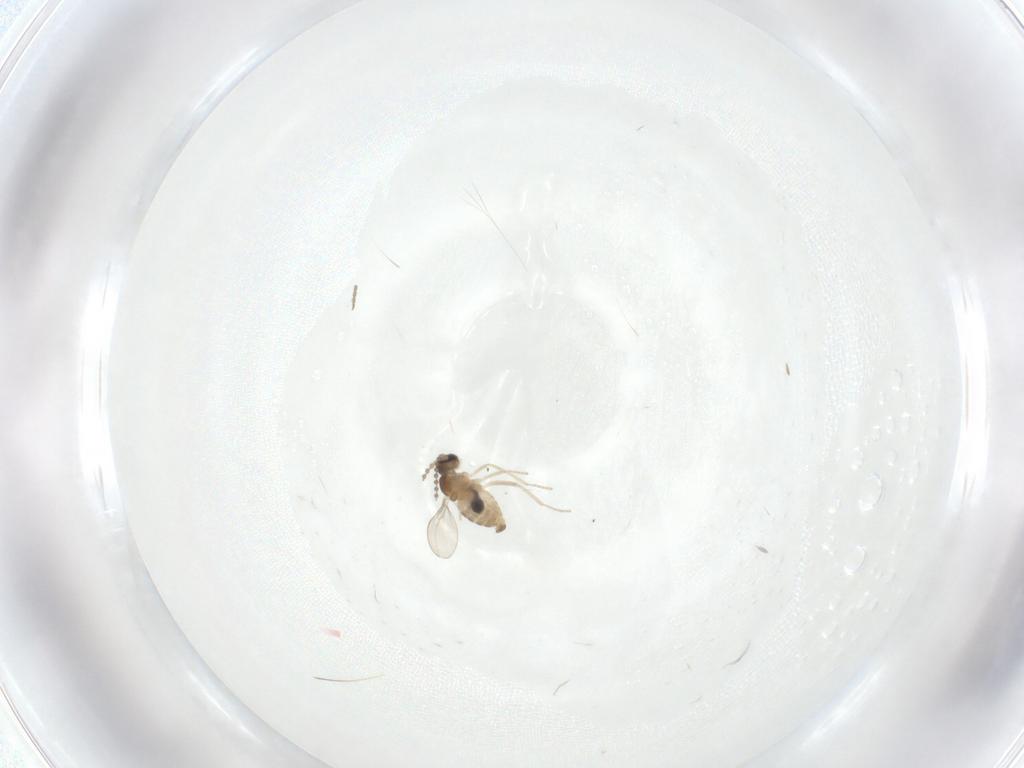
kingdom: Animalia
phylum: Arthropoda
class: Insecta
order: Diptera
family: Cecidomyiidae
